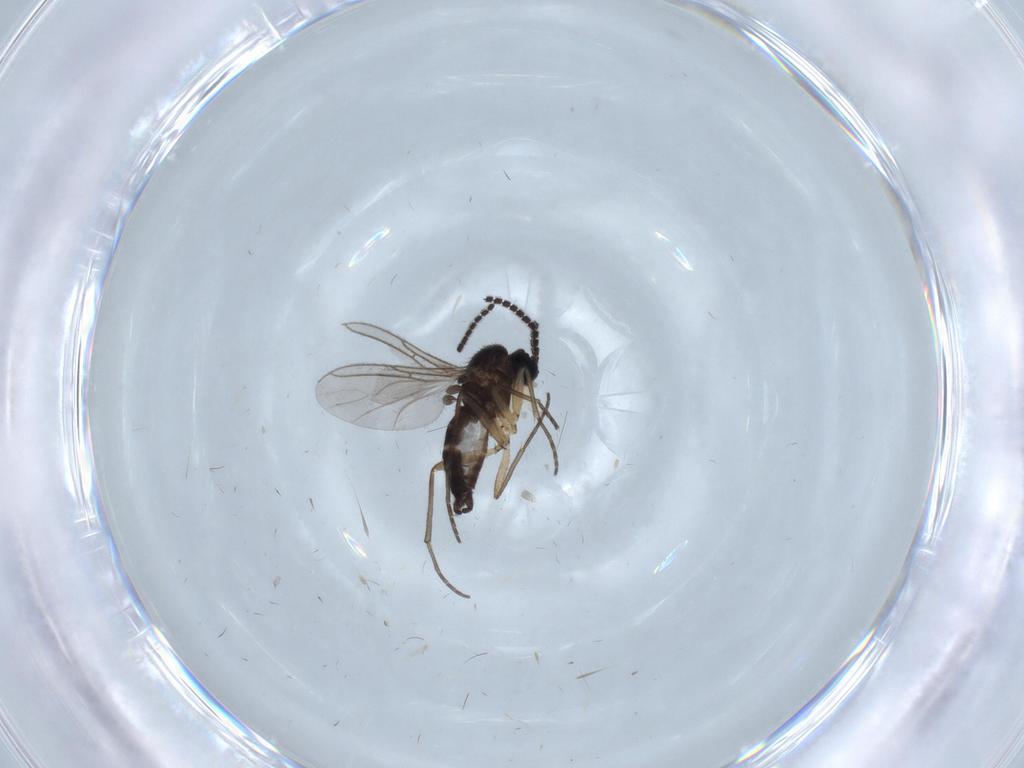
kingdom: Animalia
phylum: Arthropoda
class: Insecta
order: Diptera
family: Sciaridae
